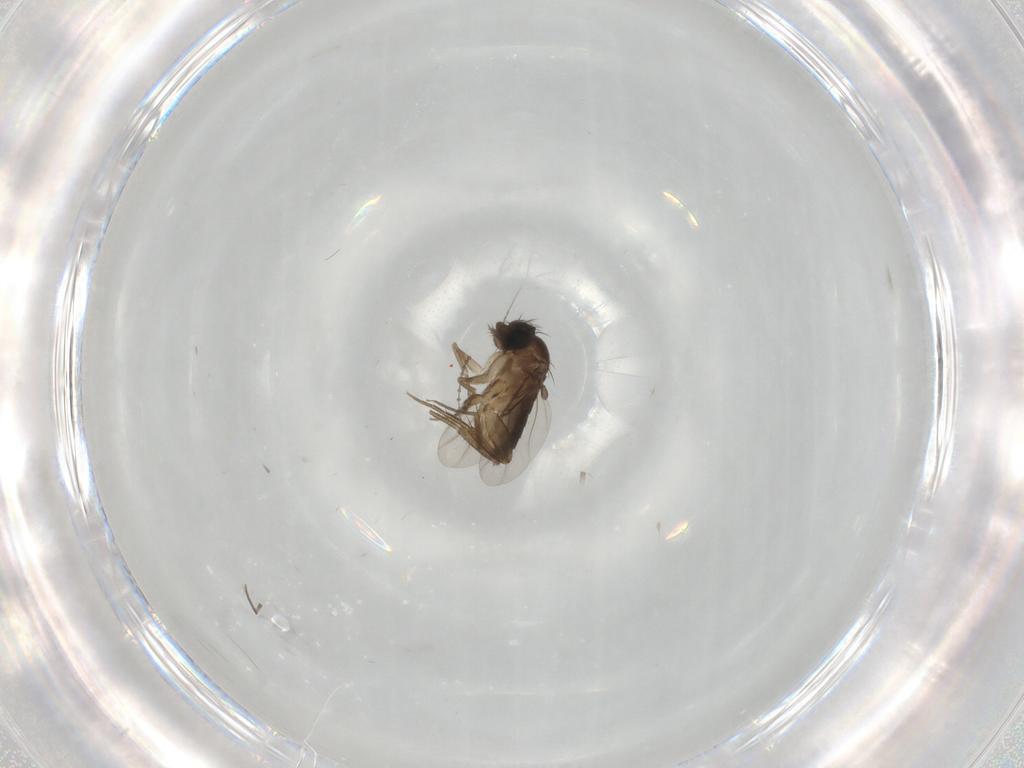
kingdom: Animalia
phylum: Arthropoda
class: Insecta
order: Diptera
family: Phoridae
